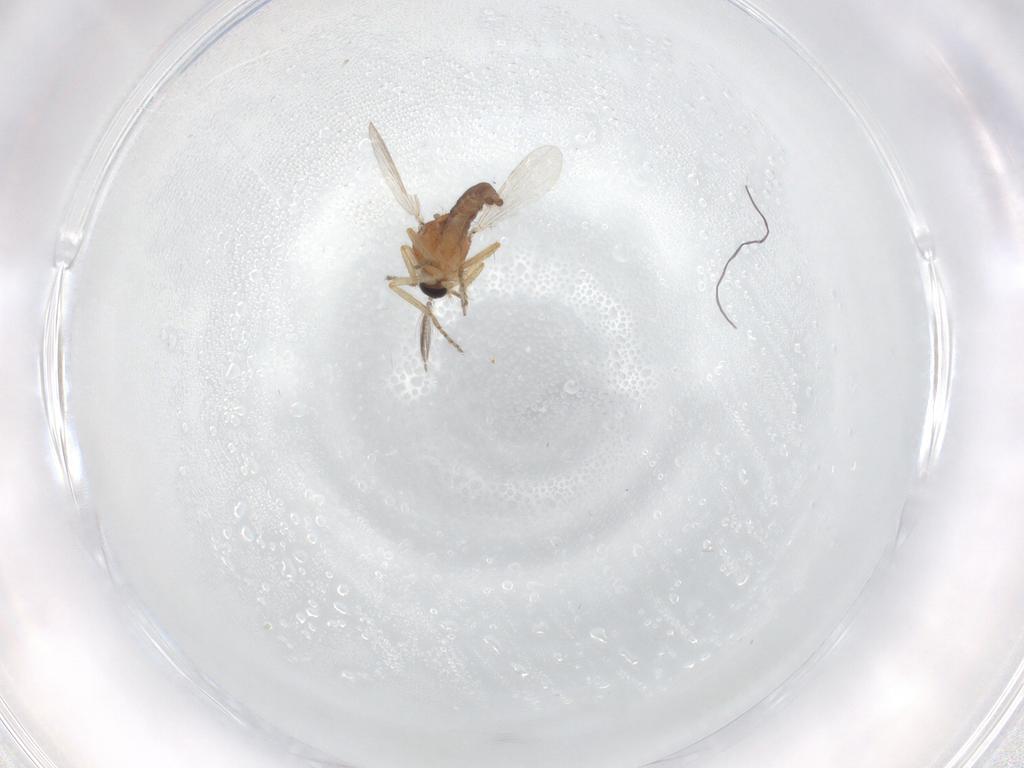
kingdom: Animalia
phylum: Arthropoda
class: Insecta
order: Diptera
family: Ceratopogonidae
